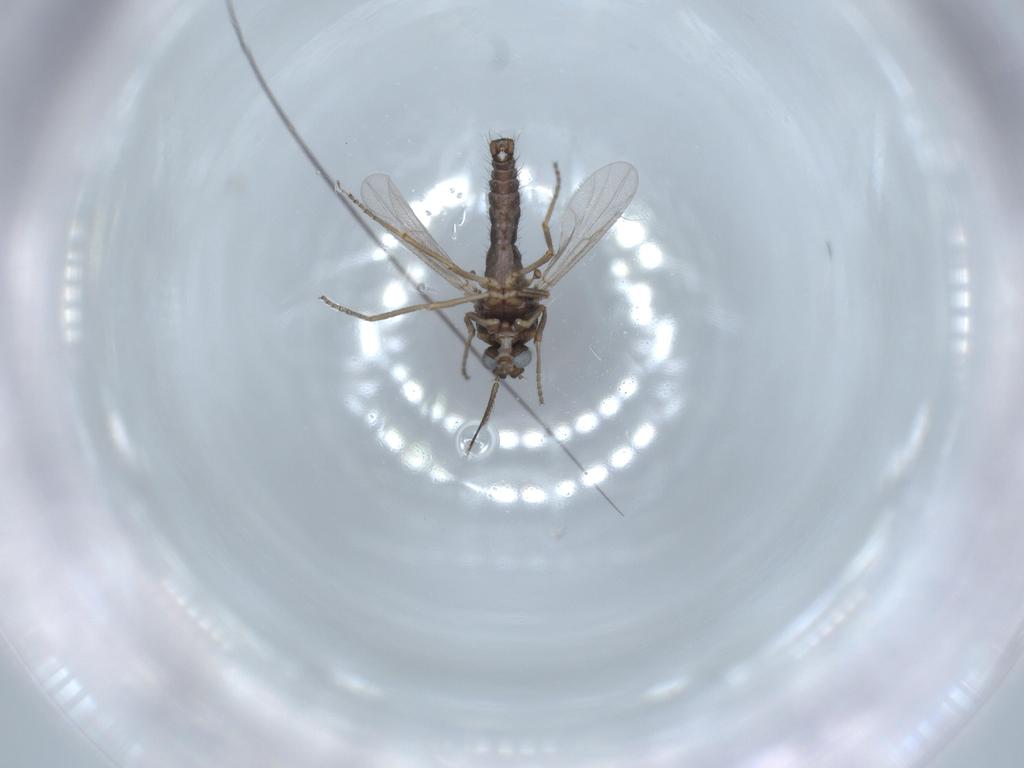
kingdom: Animalia
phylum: Arthropoda
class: Insecta
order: Diptera
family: Ceratopogonidae
